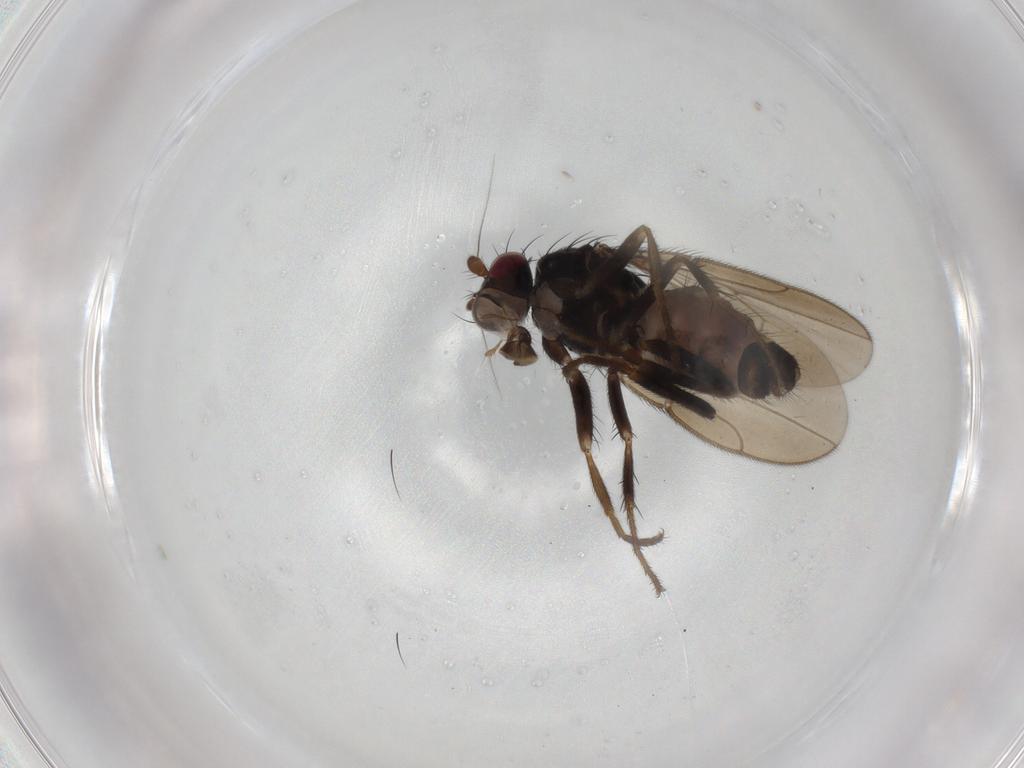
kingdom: Animalia
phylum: Arthropoda
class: Insecta
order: Diptera
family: Sphaeroceridae
